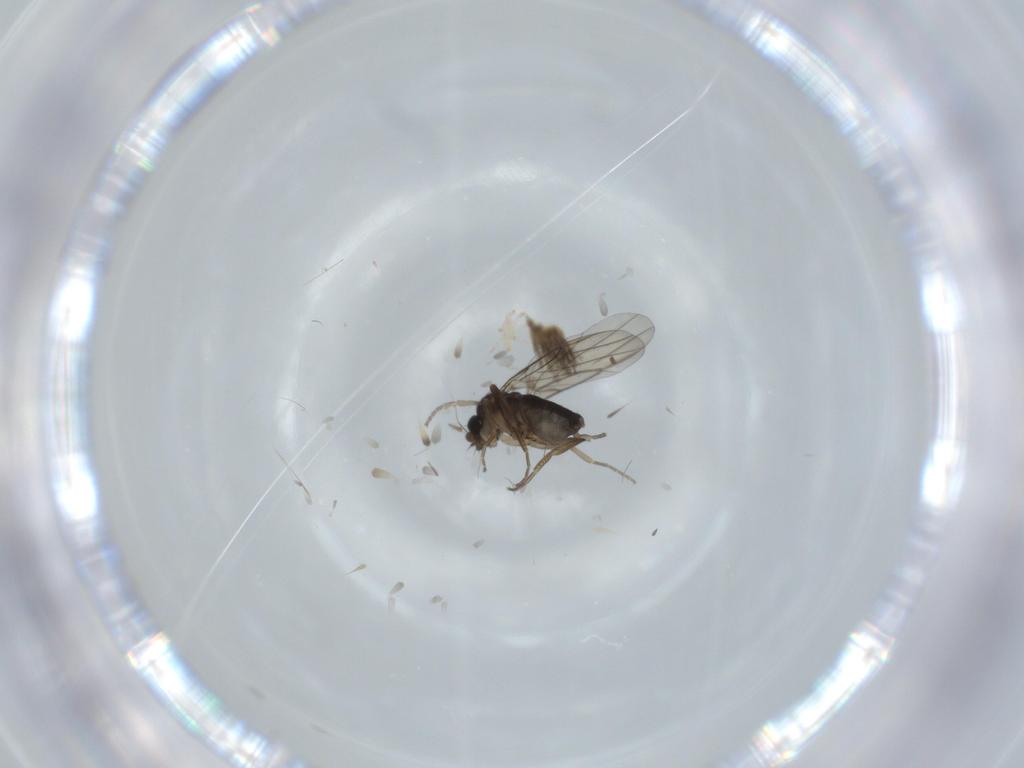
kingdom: Animalia
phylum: Arthropoda
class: Insecta
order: Diptera
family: Phoridae
